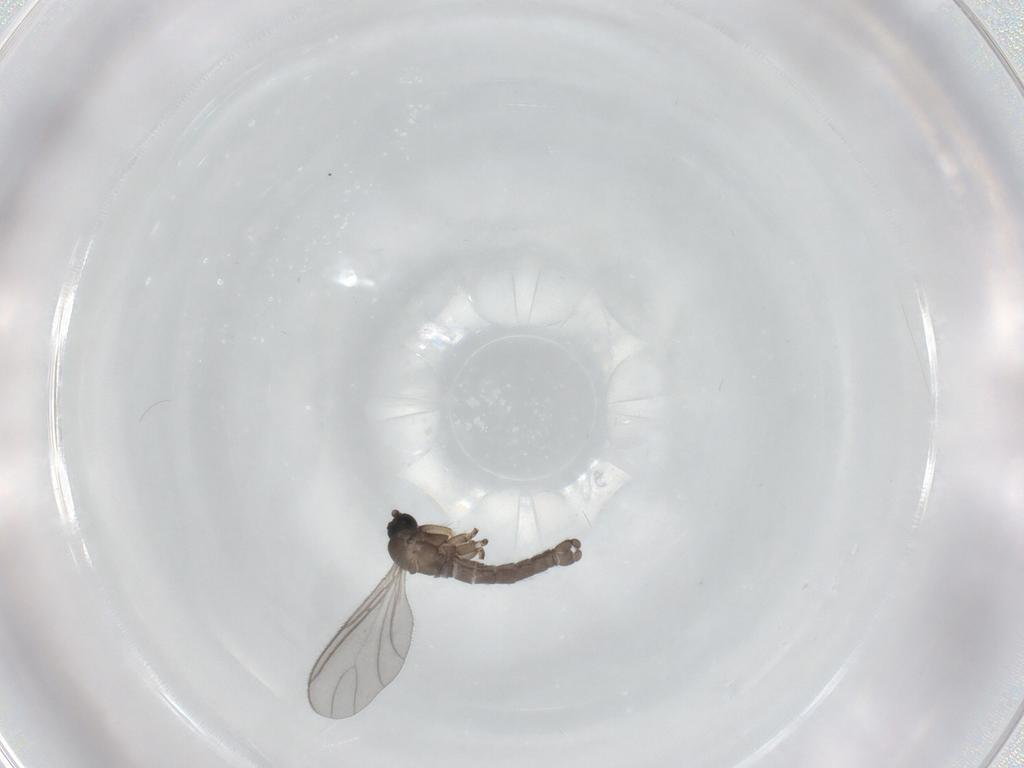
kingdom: Animalia
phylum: Arthropoda
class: Insecta
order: Diptera
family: Sciaridae
